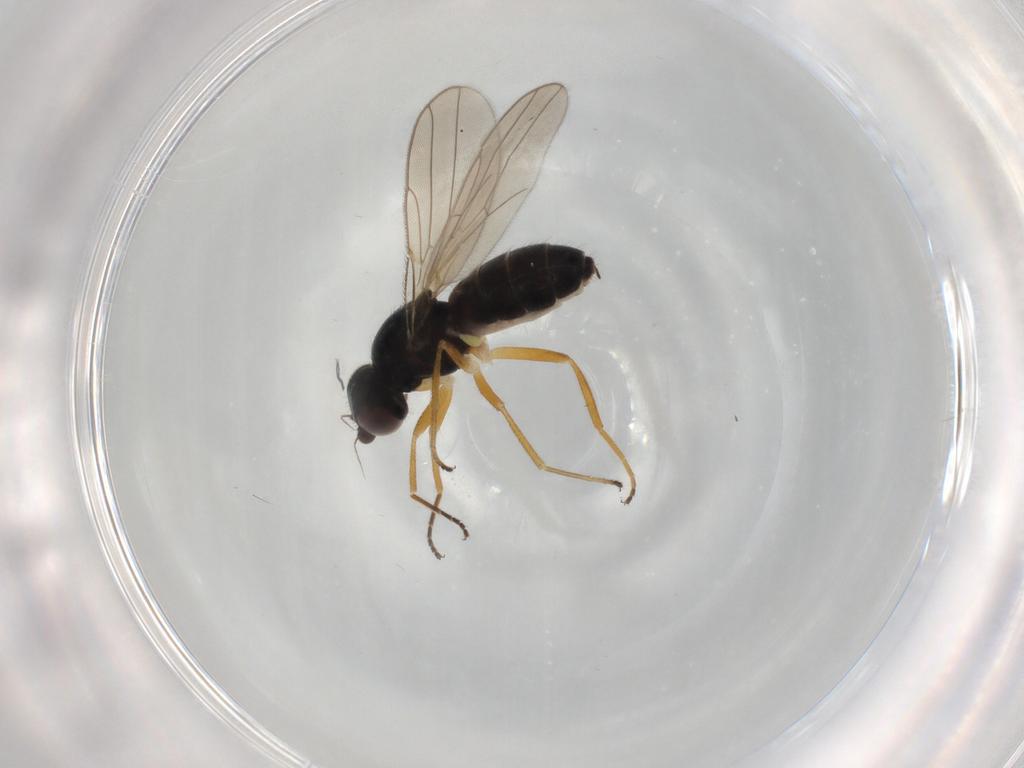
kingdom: Animalia
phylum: Arthropoda
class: Insecta
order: Diptera
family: Chloropidae
